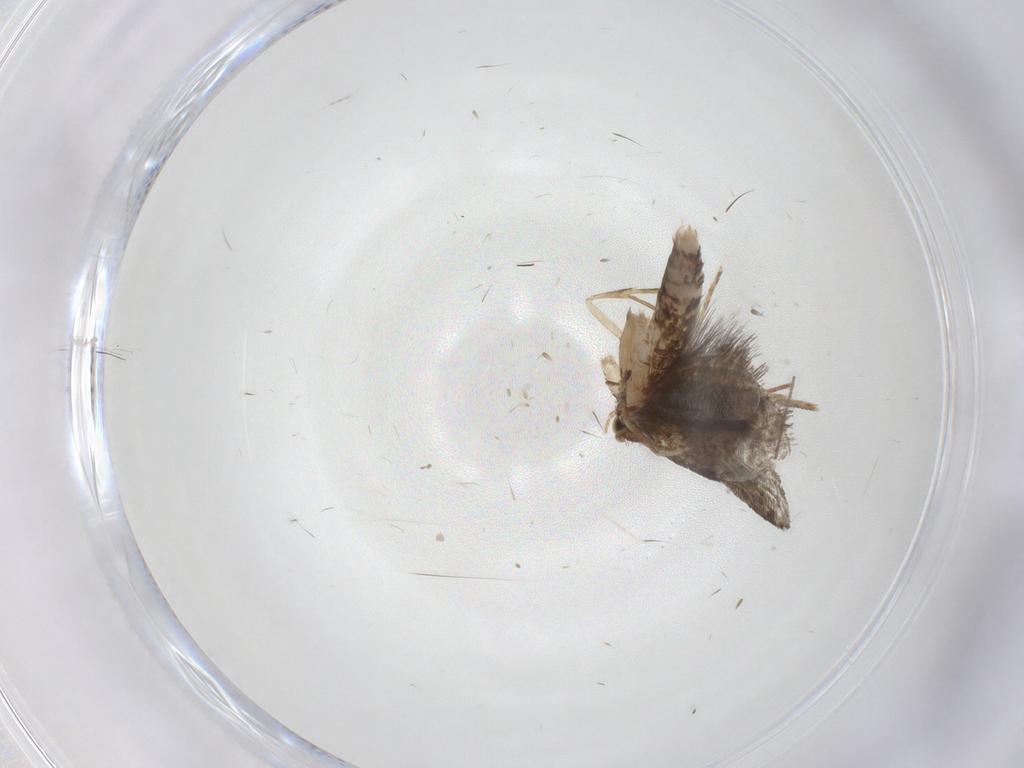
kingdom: Animalia
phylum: Arthropoda
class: Insecta
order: Lepidoptera
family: Tineidae
